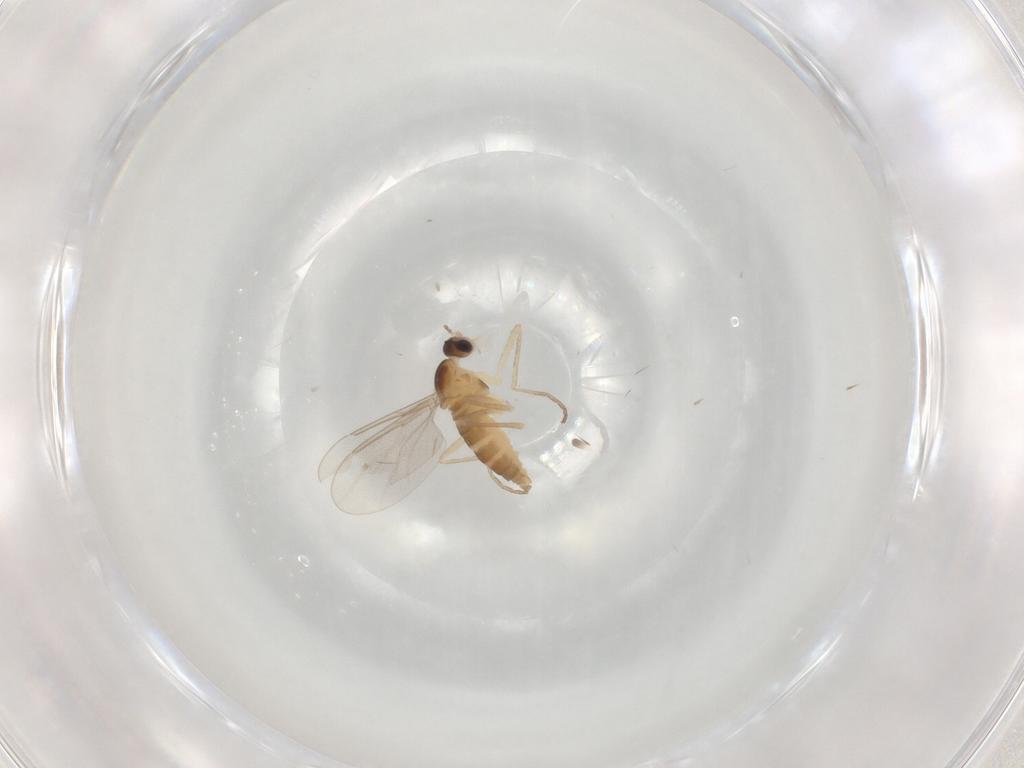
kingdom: Animalia
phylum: Arthropoda
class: Insecta
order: Diptera
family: Cecidomyiidae
